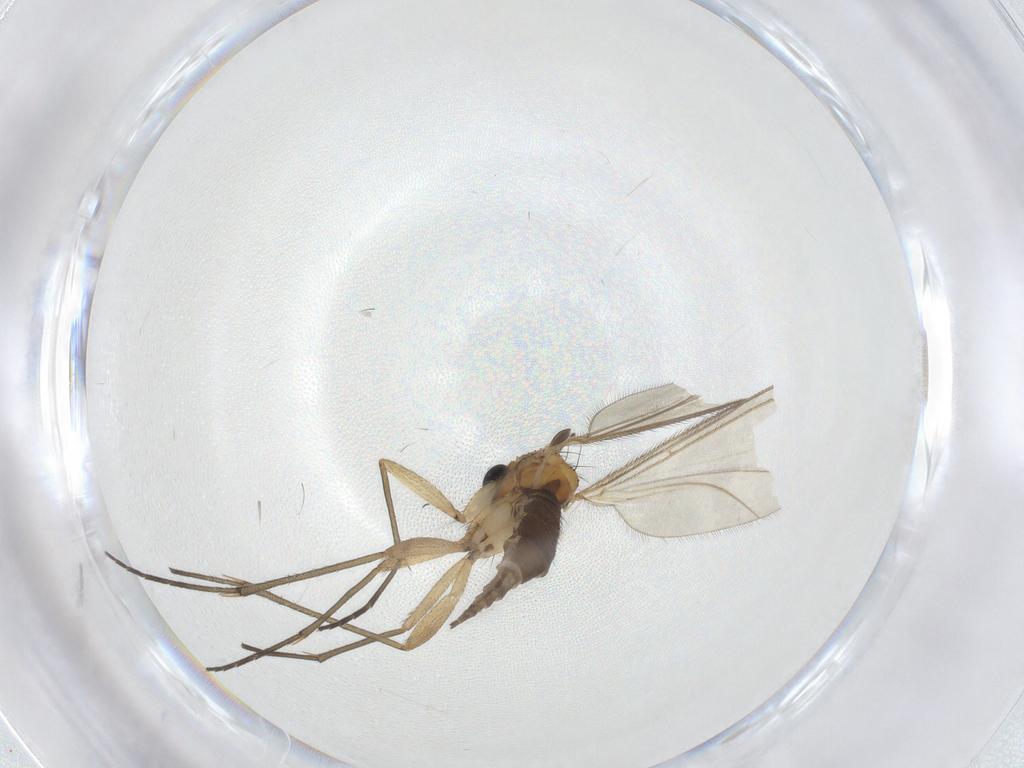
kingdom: Animalia
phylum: Arthropoda
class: Insecta
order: Diptera
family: Sciaridae
